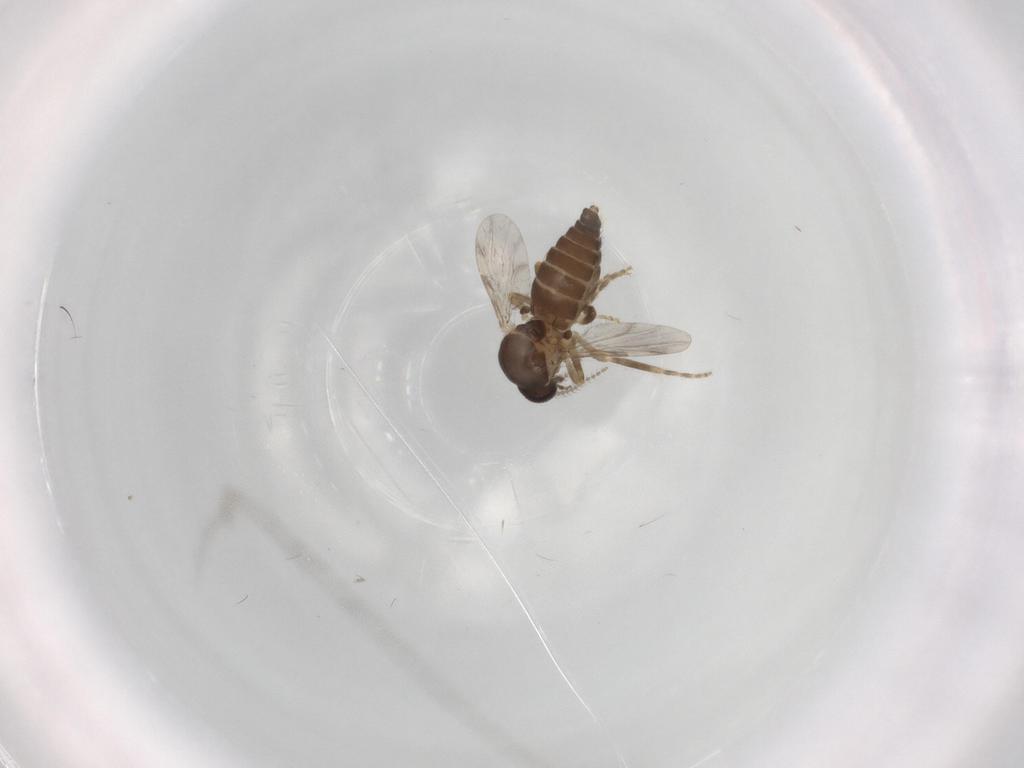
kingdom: Animalia
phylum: Arthropoda
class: Insecta
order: Diptera
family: Ceratopogonidae
